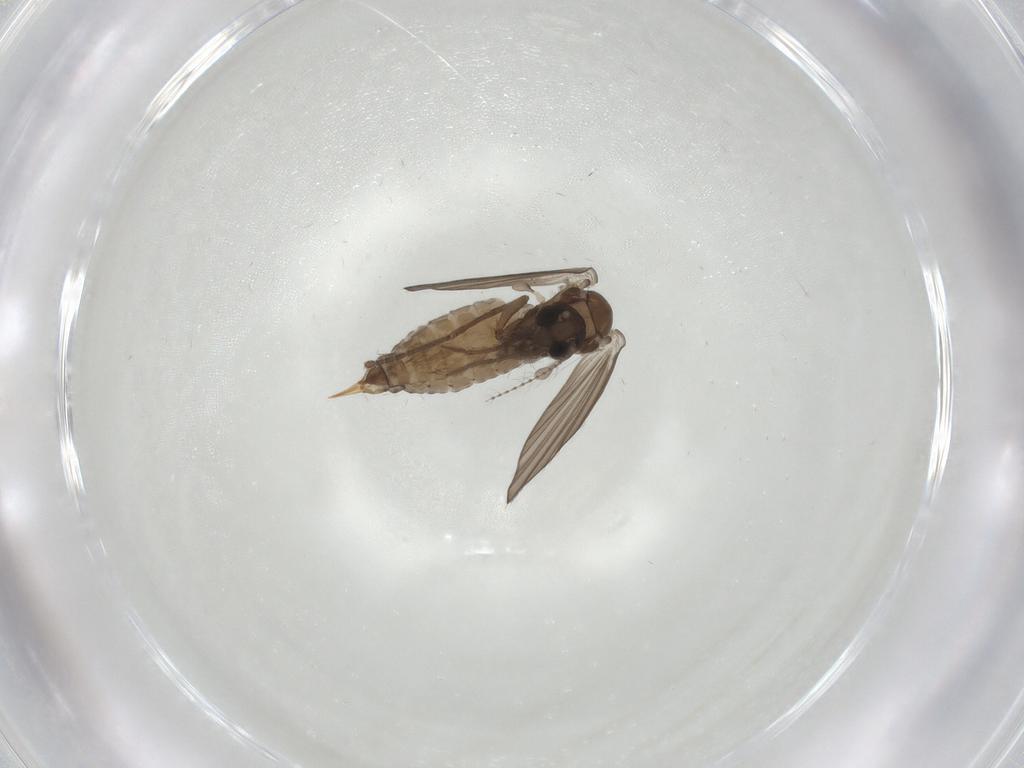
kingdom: Animalia
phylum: Arthropoda
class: Insecta
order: Diptera
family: Psychodidae
